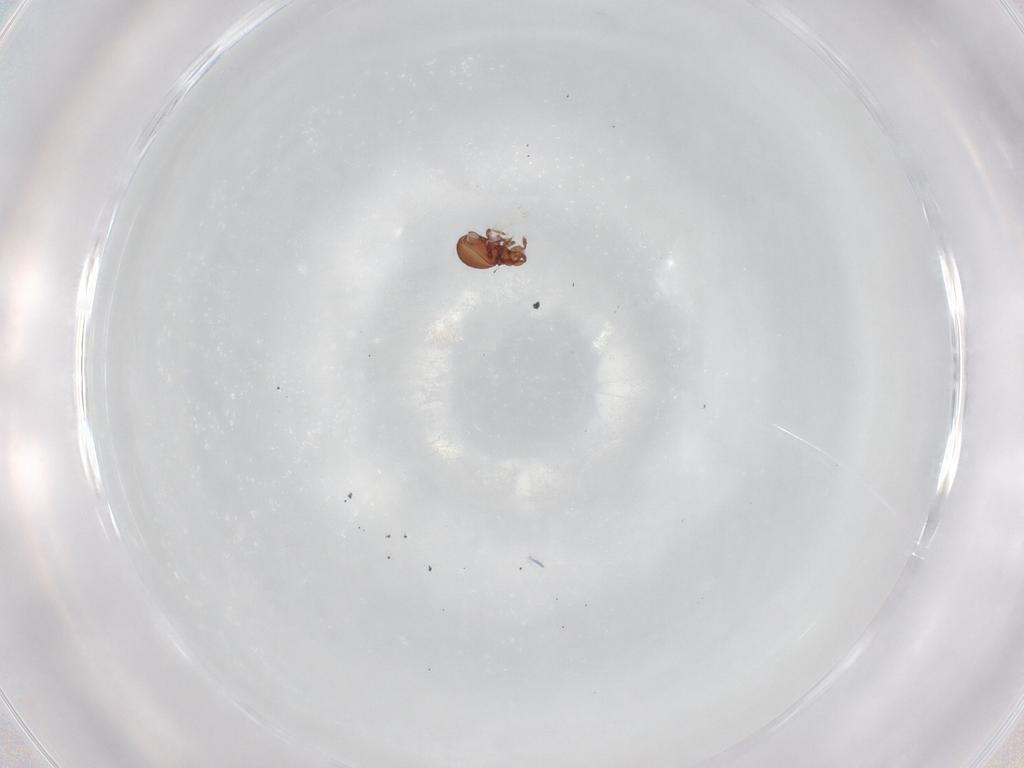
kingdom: Animalia
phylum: Arthropoda
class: Arachnida
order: Sarcoptiformes
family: Eremaeidae
